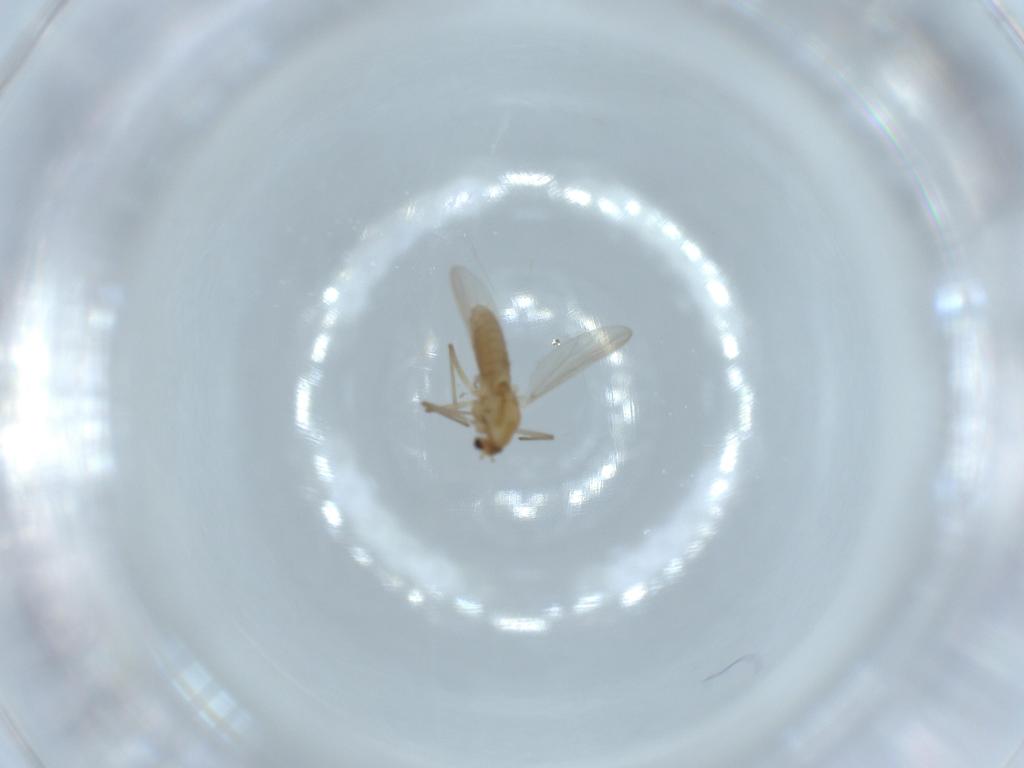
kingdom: Animalia
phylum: Arthropoda
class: Insecta
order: Diptera
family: Chironomidae
